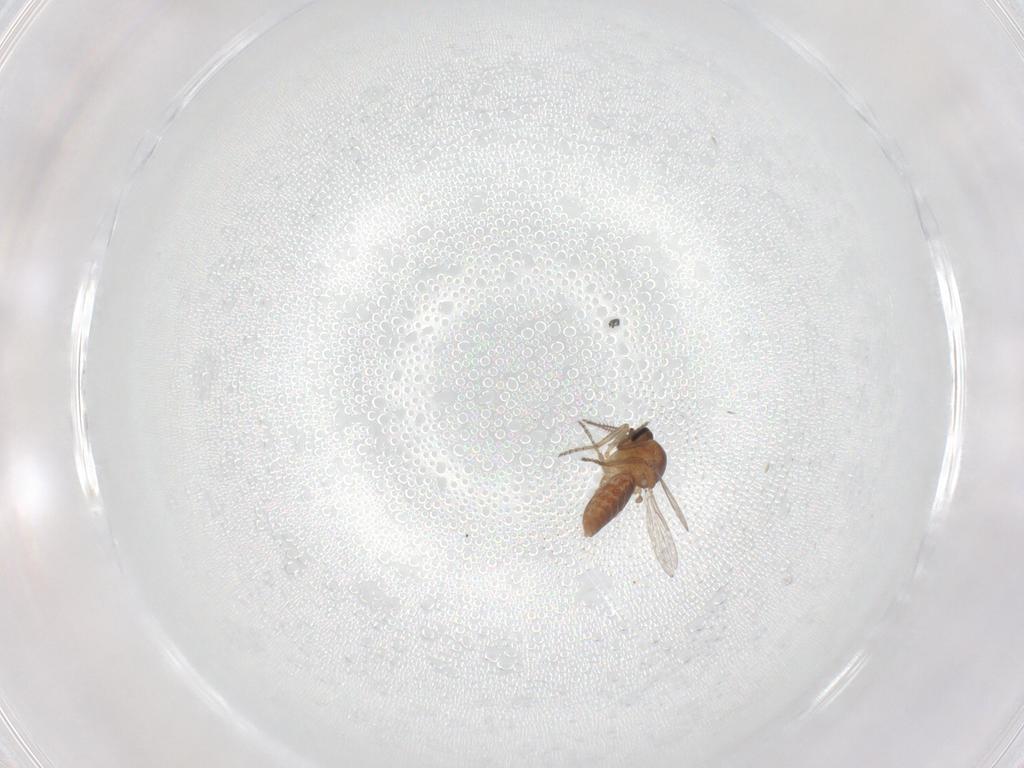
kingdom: Animalia
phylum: Arthropoda
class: Insecta
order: Diptera
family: Ceratopogonidae
